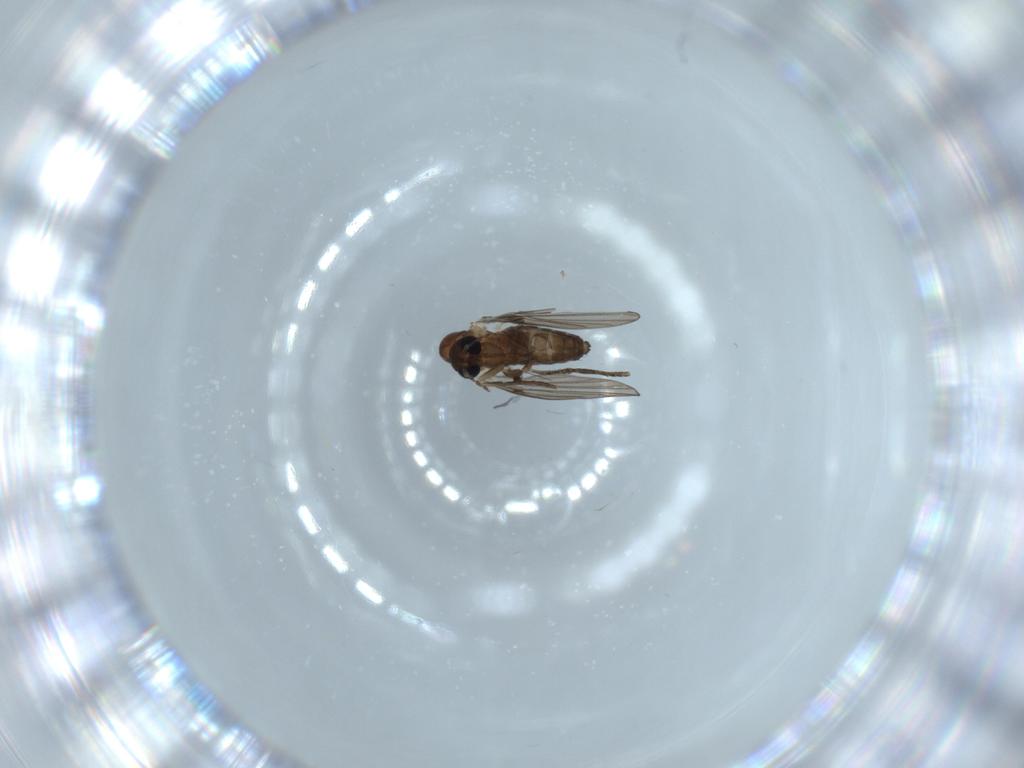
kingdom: Animalia
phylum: Arthropoda
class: Insecta
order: Diptera
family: Psychodidae
